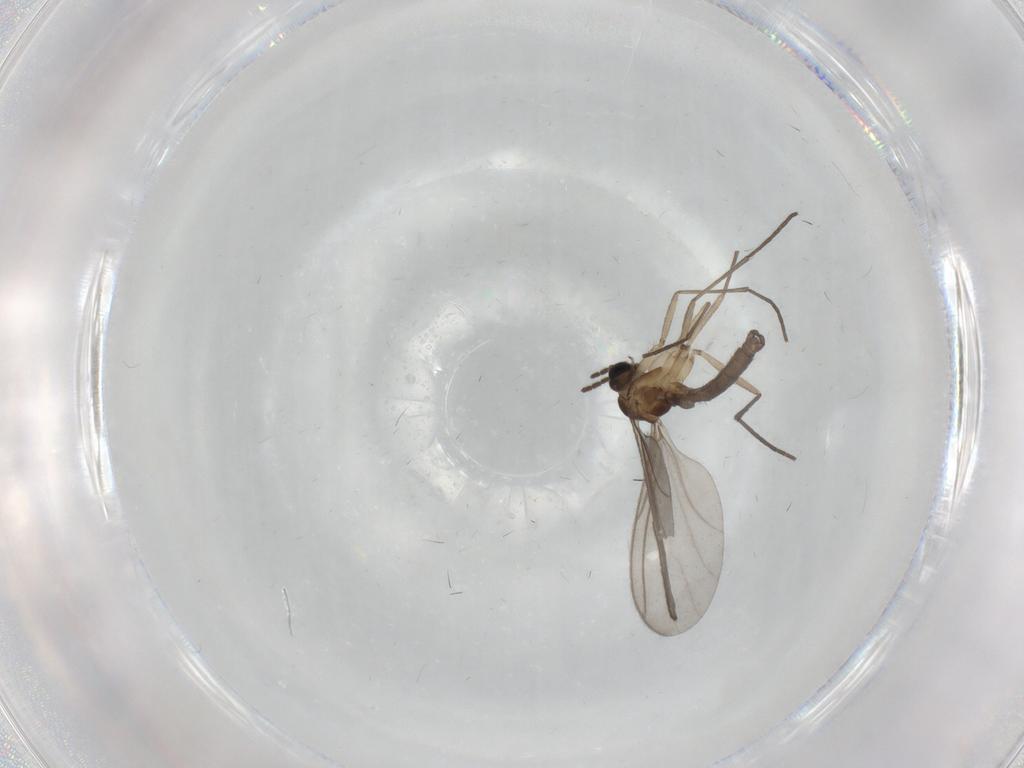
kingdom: Animalia
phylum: Arthropoda
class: Insecta
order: Diptera
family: Sciaridae
